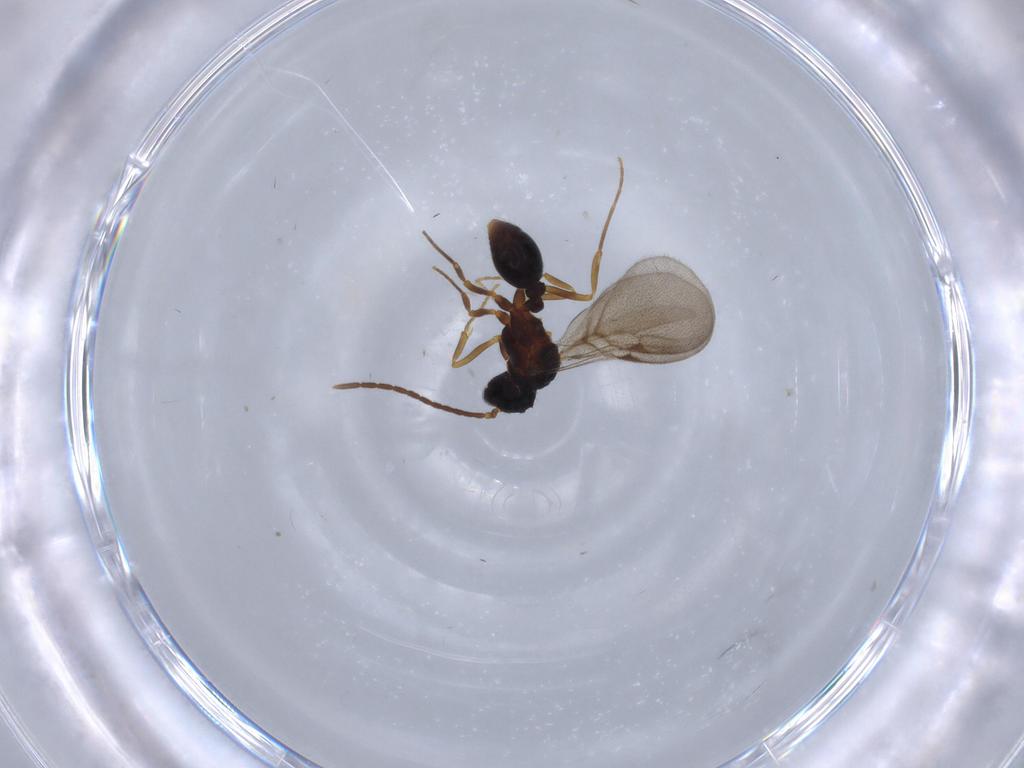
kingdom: Animalia
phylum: Arthropoda
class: Insecta
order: Hymenoptera
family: Formicidae
